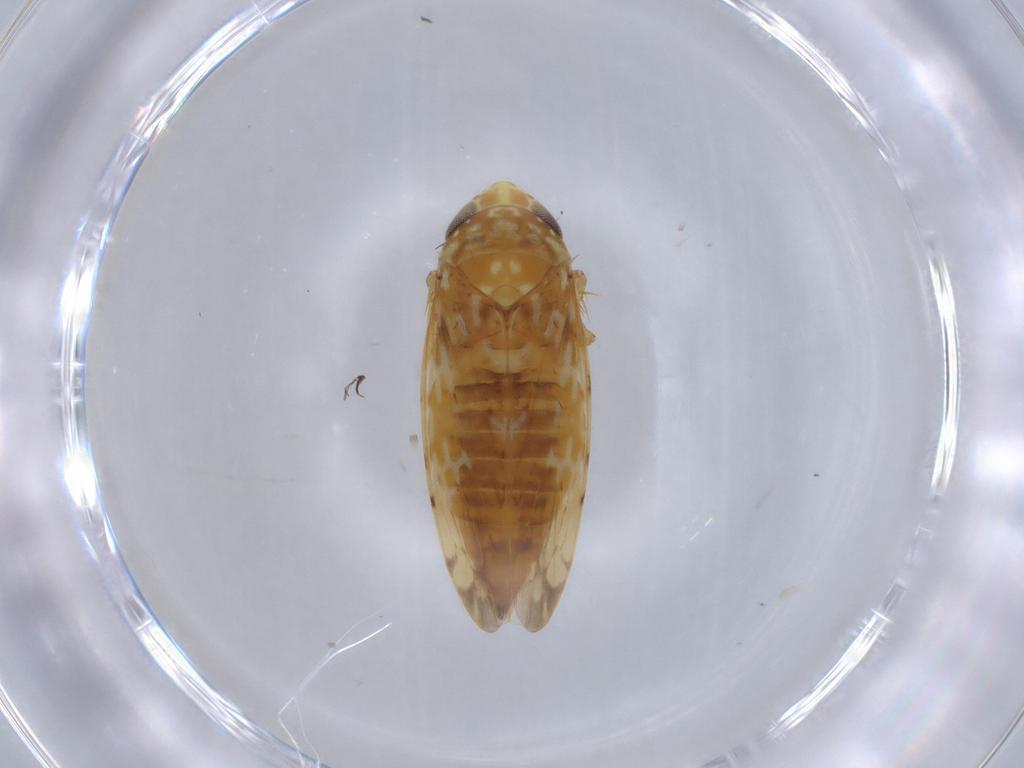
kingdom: Animalia
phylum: Arthropoda
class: Insecta
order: Hemiptera
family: Cicadellidae
